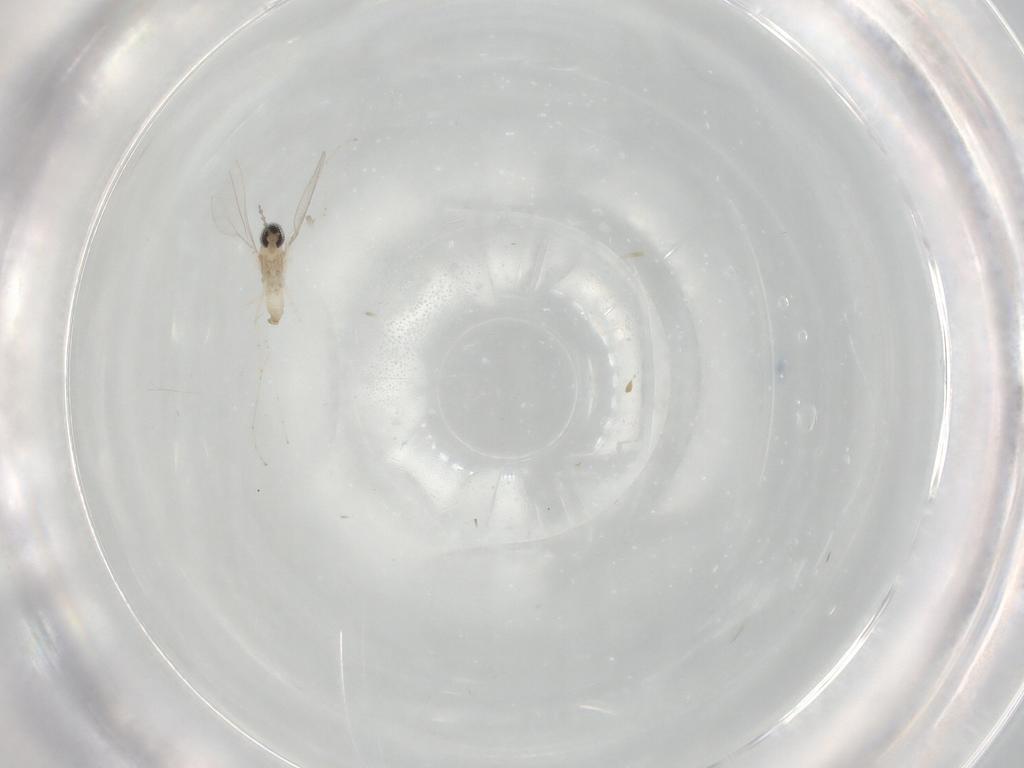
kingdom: Animalia
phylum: Arthropoda
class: Insecta
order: Diptera
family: Cecidomyiidae
